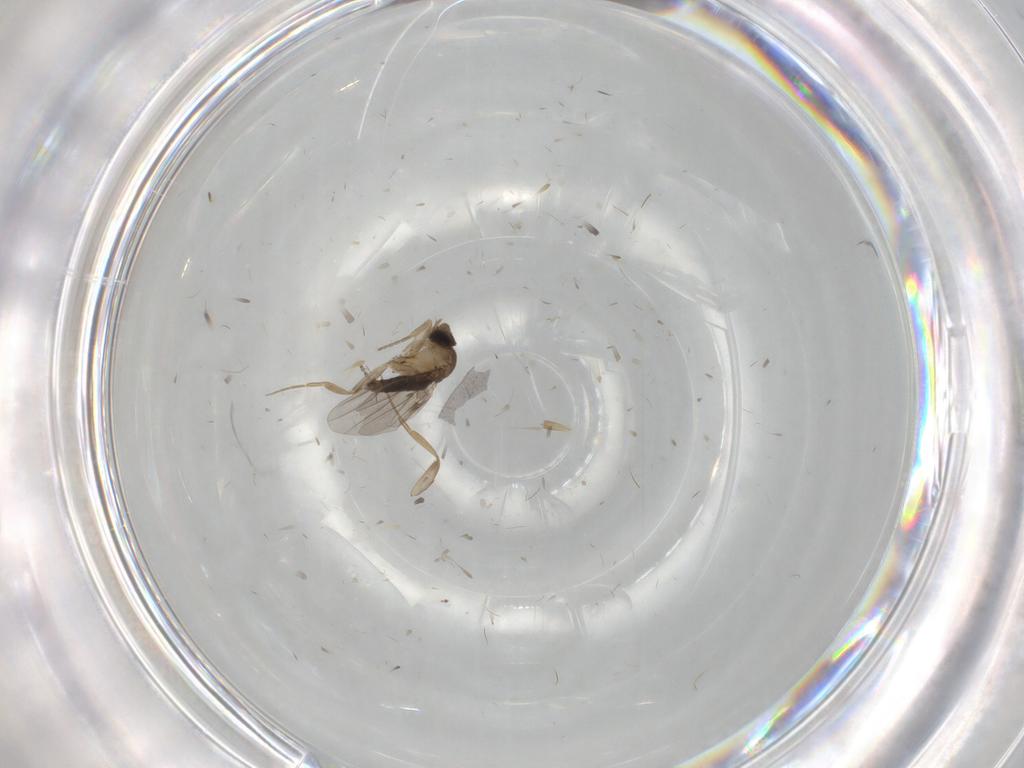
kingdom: Animalia
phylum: Arthropoda
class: Insecta
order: Diptera
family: Phoridae
